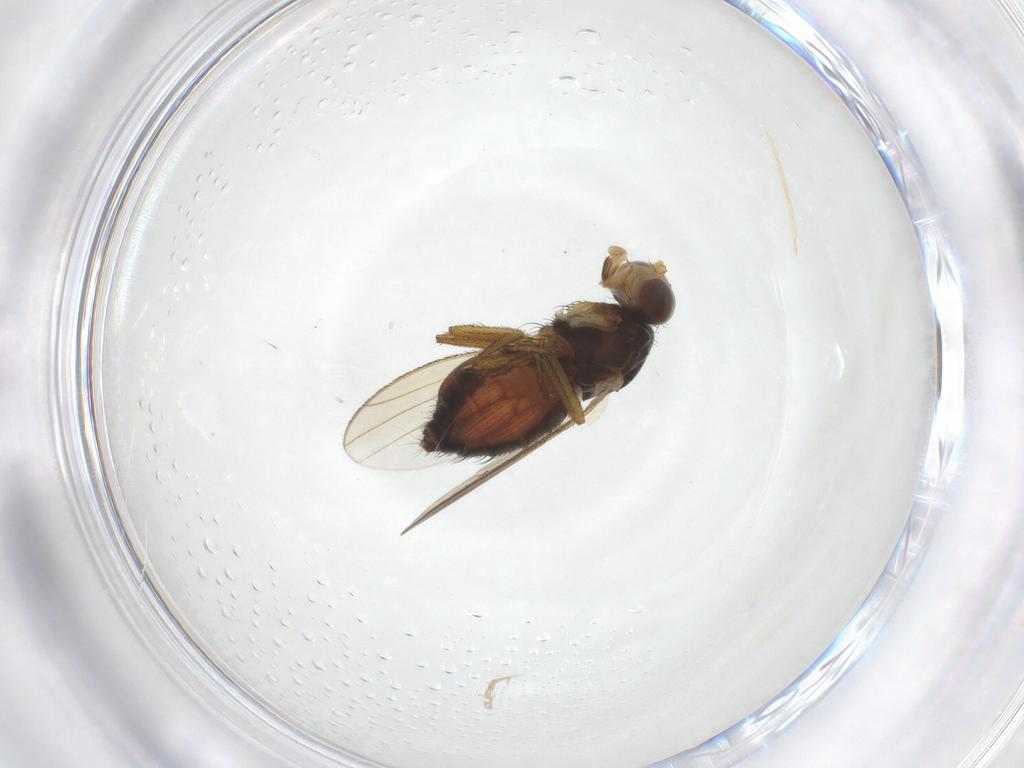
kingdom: Animalia
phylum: Arthropoda
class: Insecta
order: Diptera
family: Heleomyzidae
